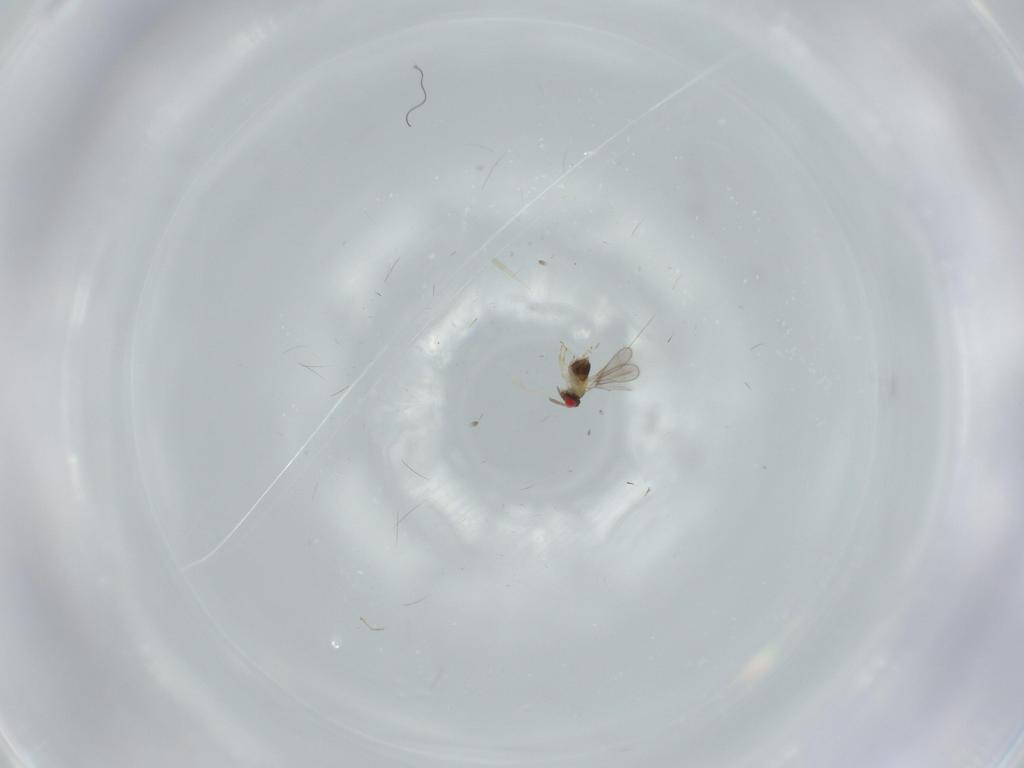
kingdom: Animalia
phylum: Arthropoda
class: Insecta
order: Hymenoptera
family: Aphelinidae
